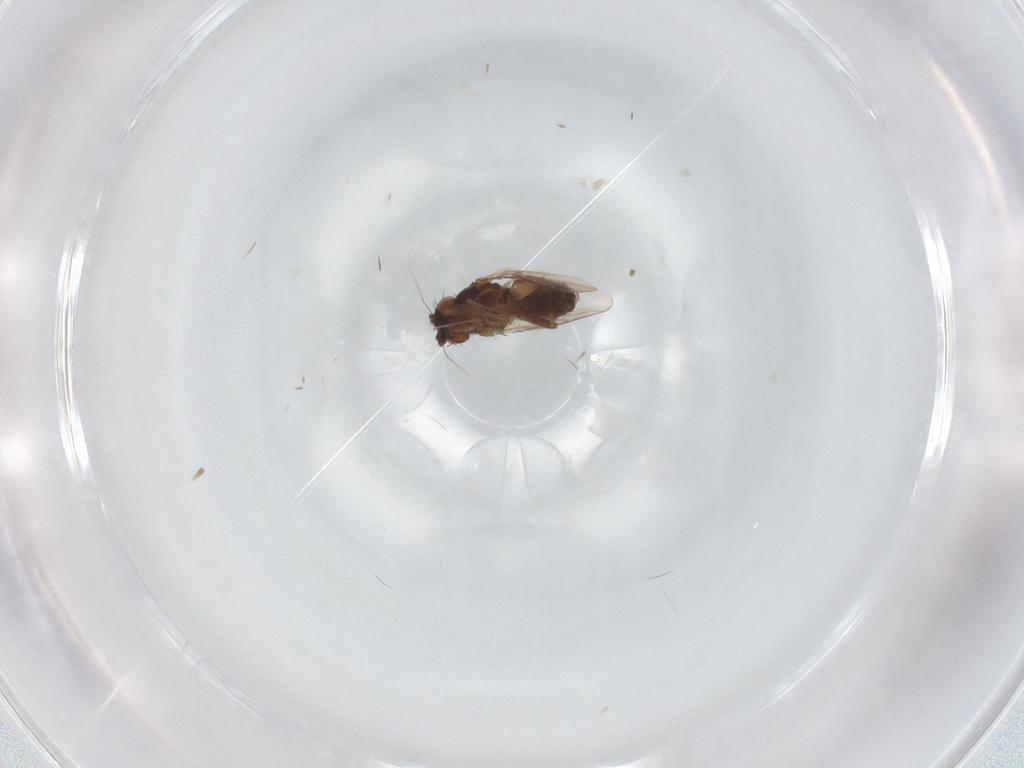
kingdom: Animalia
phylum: Arthropoda
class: Insecta
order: Diptera
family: Sphaeroceridae
